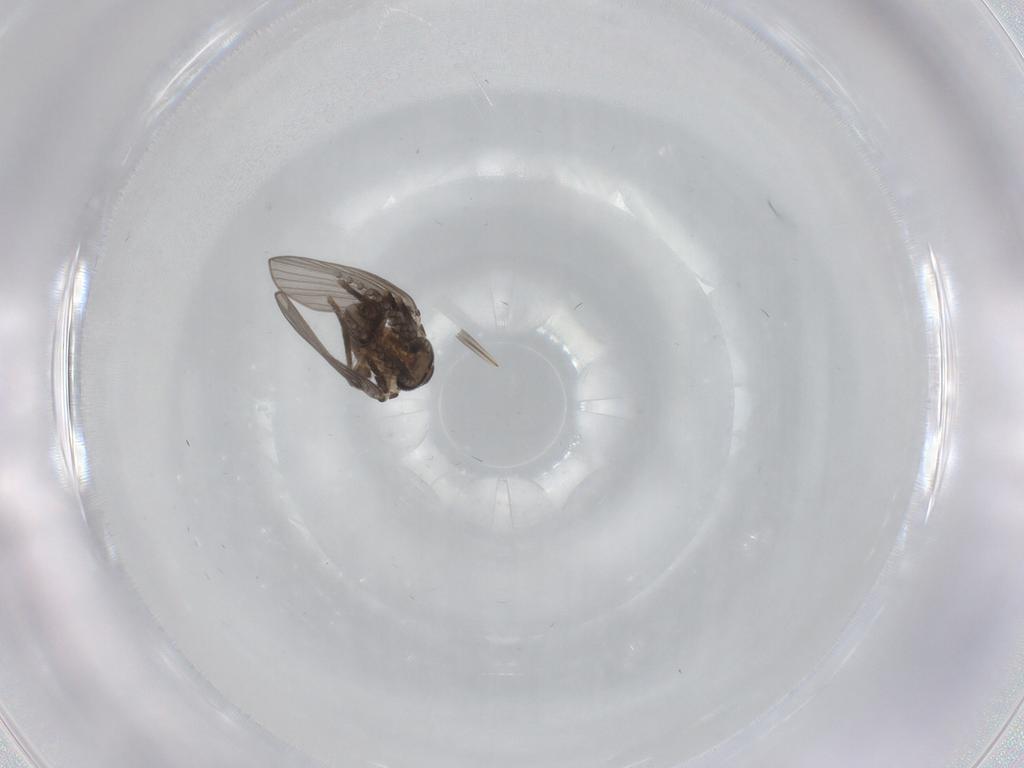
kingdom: Animalia
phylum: Arthropoda
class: Insecta
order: Diptera
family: Psychodidae
